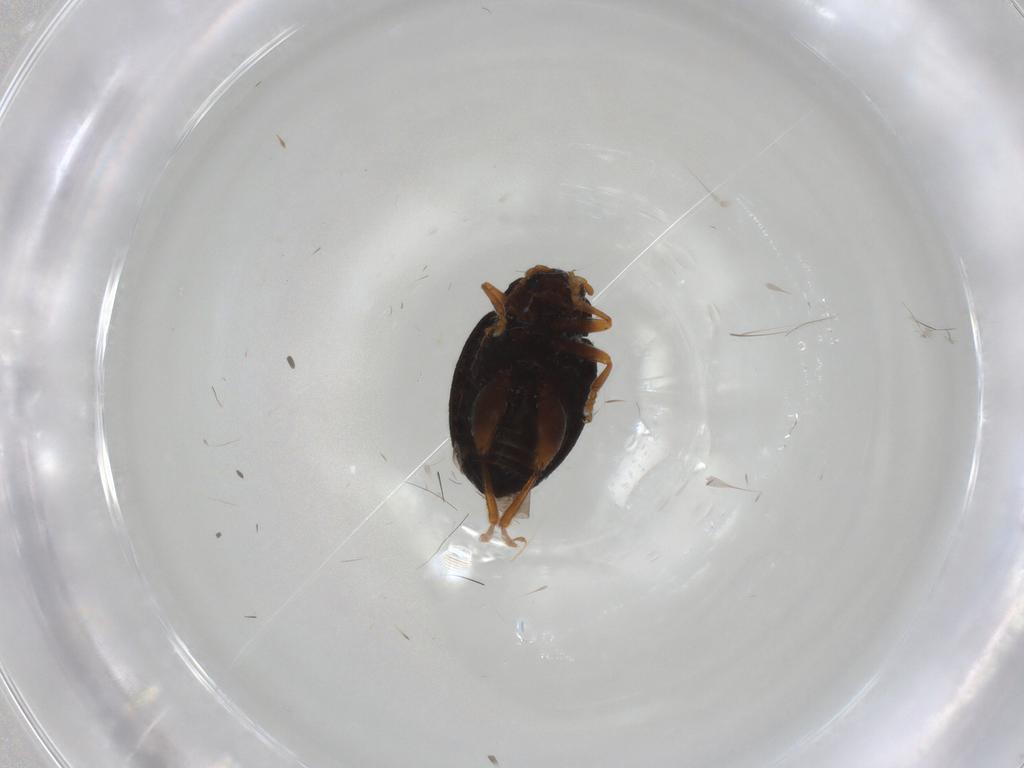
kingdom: Animalia
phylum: Arthropoda
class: Insecta
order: Coleoptera
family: Chrysomelidae
